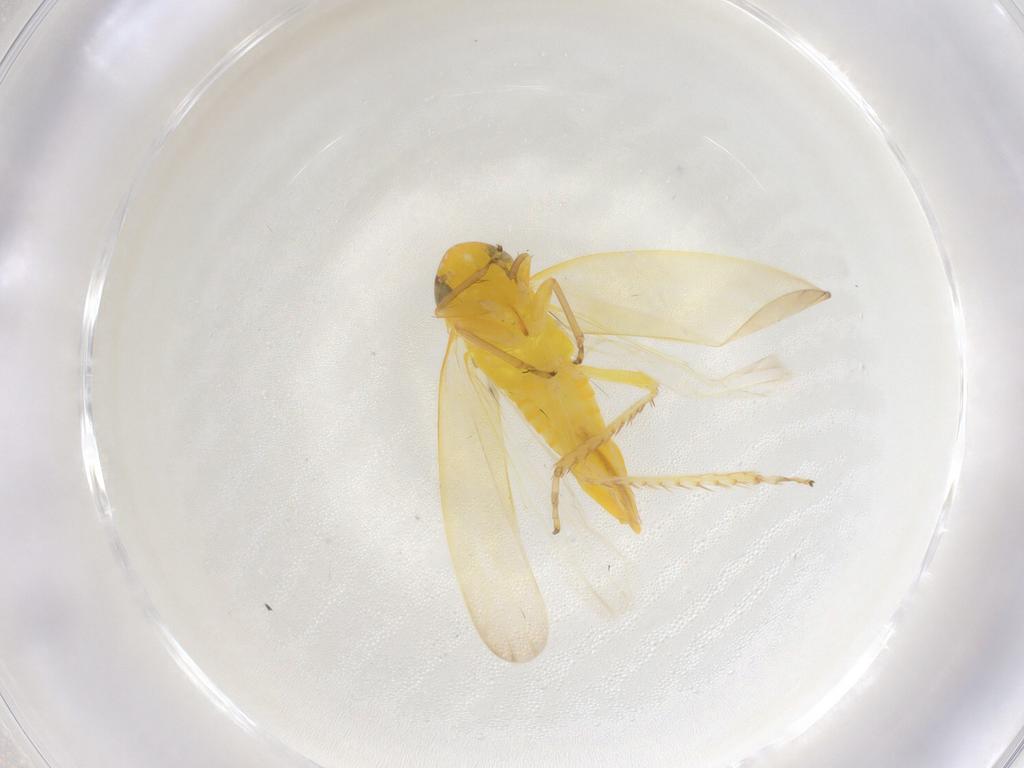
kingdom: Animalia
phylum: Arthropoda
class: Insecta
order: Hemiptera
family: Cicadellidae
